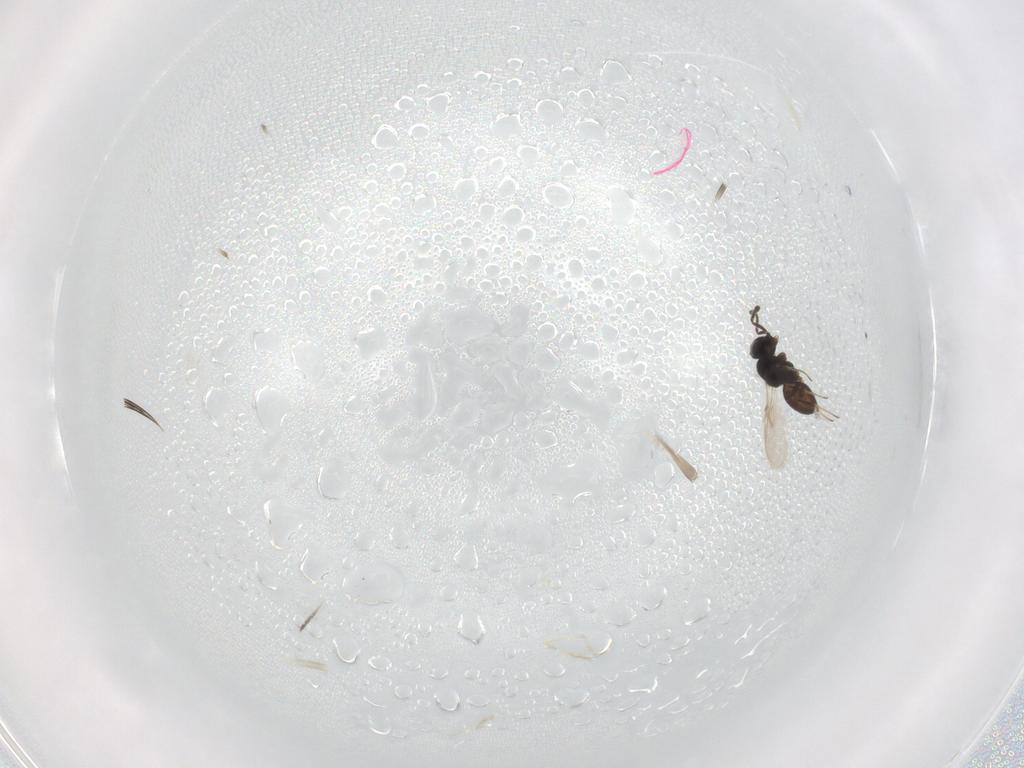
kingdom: Animalia
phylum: Arthropoda
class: Insecta
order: Hymenoptera
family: Scelionidae
